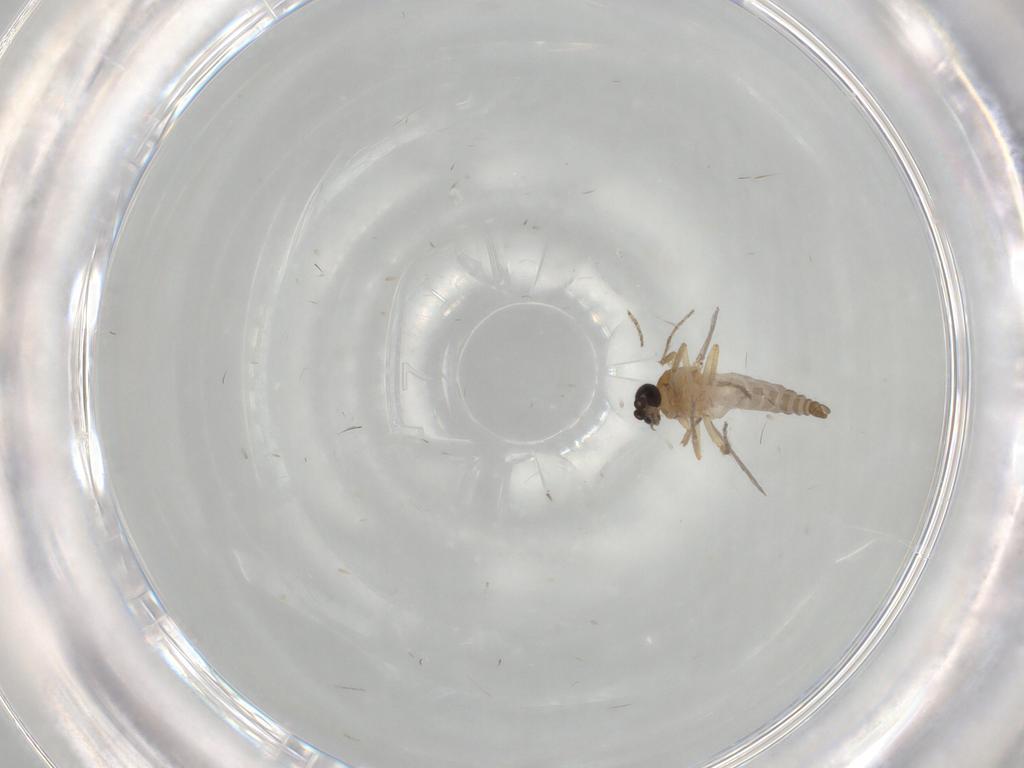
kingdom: Animalia
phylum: Arthropoda
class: Insecta
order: Diptera
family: Ceratopogonidae
